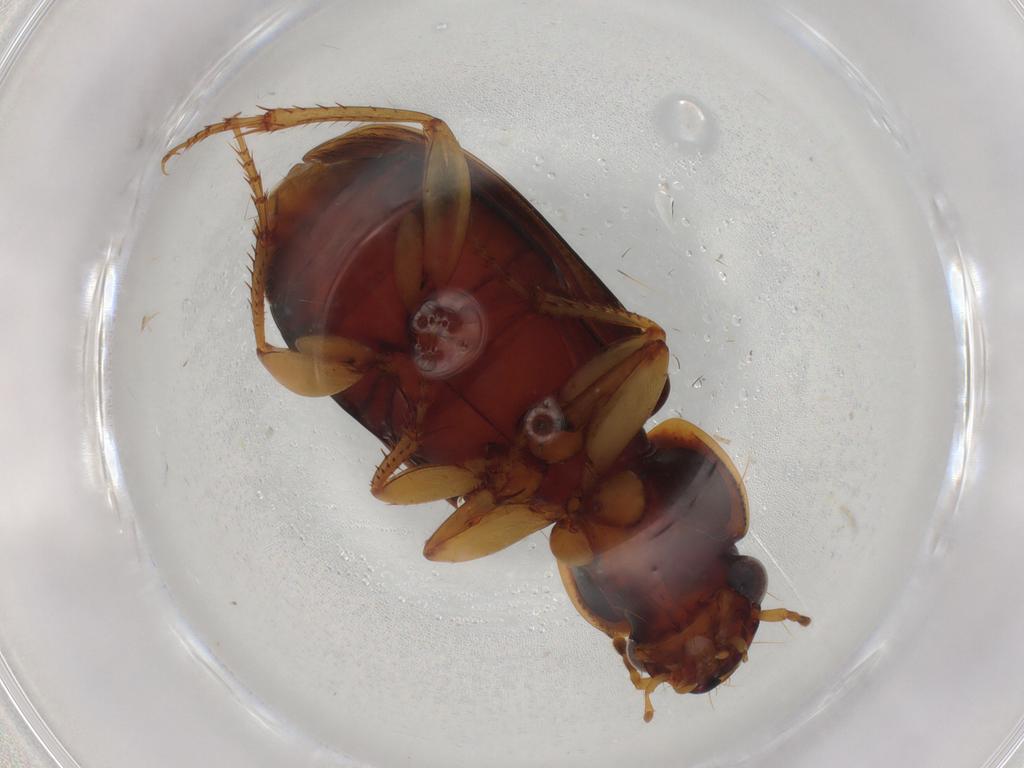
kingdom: Animalia
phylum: Arthropoda
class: Insecta
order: Coleoptera
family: Carabidae
